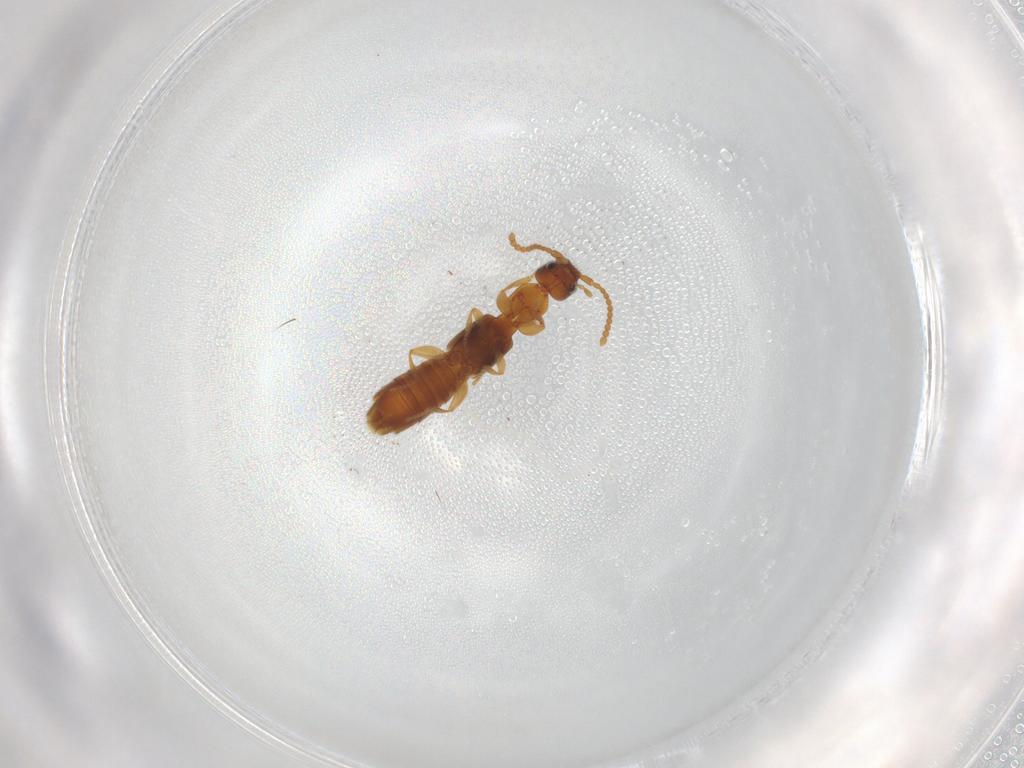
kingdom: Animalia
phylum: Arthropoda
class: Insecta
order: Coleoptera
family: Staphylinidae
